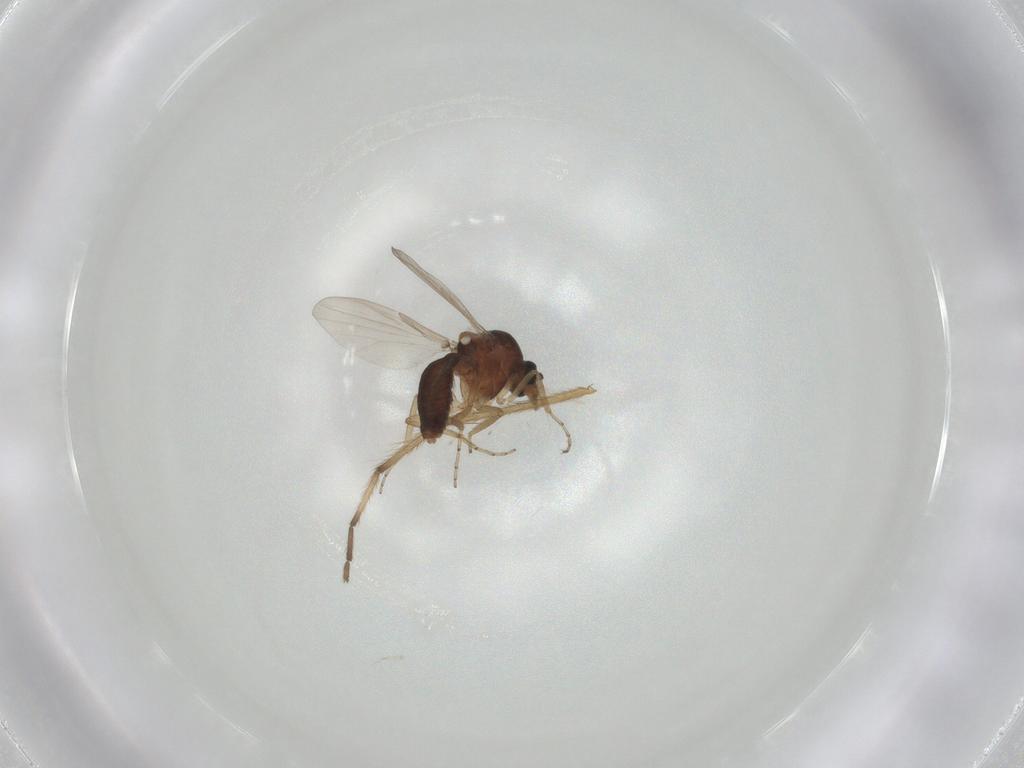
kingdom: Animalia
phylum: Arthropoda
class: Insecta
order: Diptera
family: Ceratopogonidae
